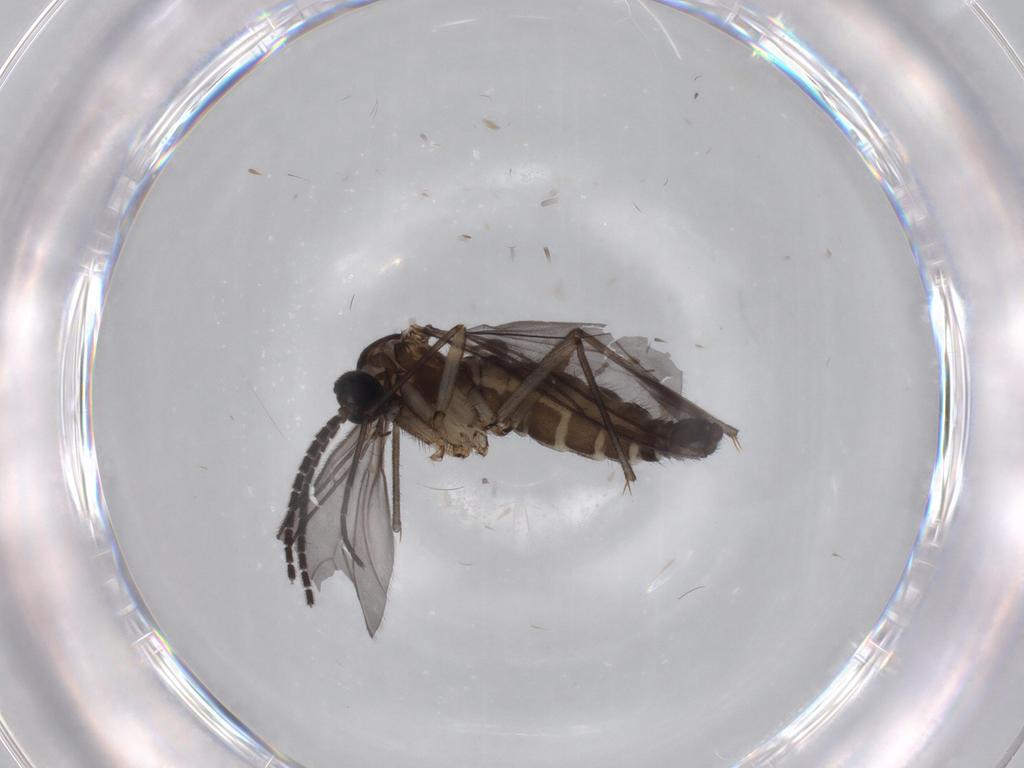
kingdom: Animalia
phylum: Arthropoda
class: Insecta
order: Diptera
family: Sciaridae
